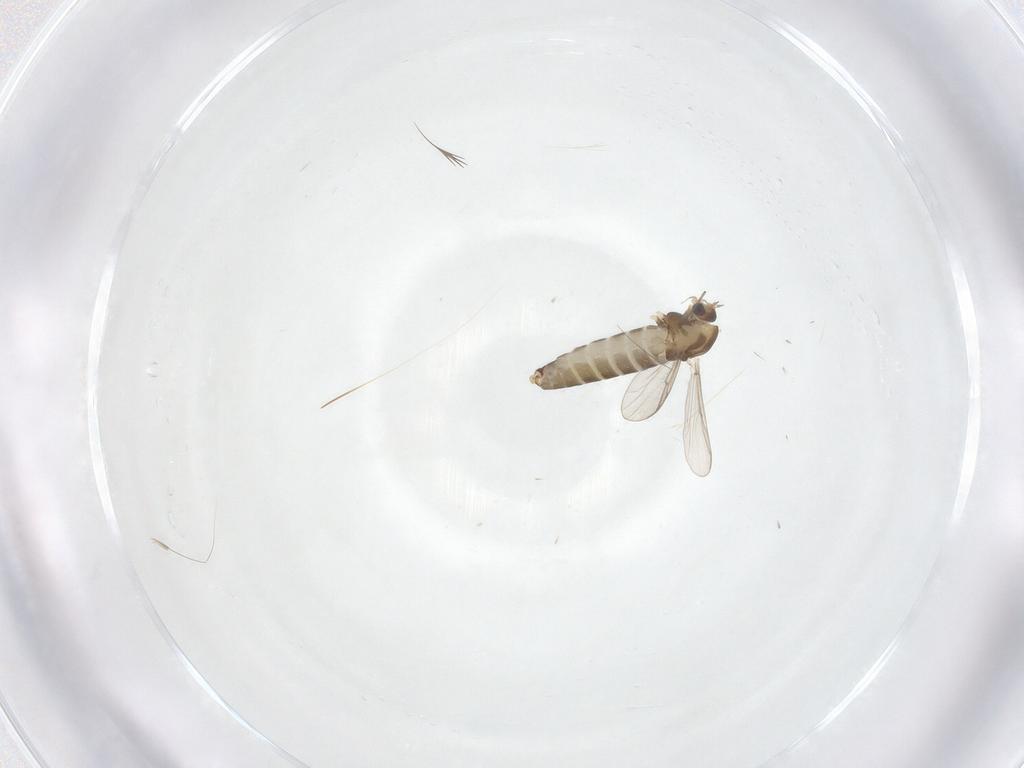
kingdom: Animalia
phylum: Arthropoda
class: Insecta
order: Diptera
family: Chironomidae
